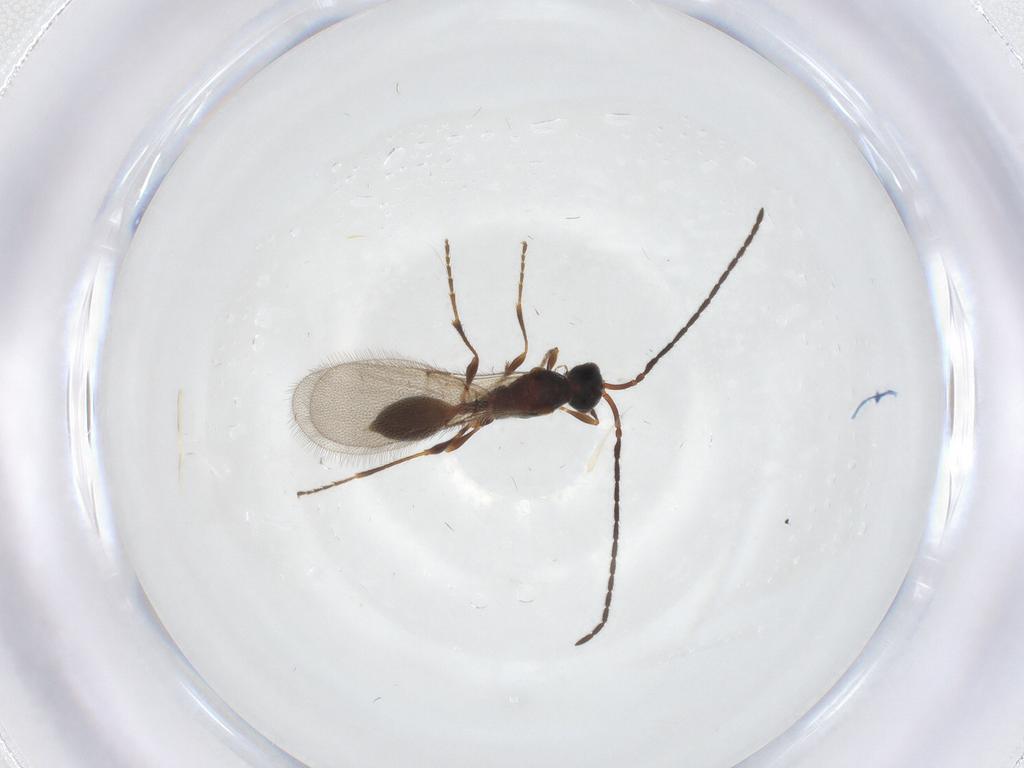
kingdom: Animalia
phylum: Arthropoda
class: Insecta
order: Hymenoptera
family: Diapriidae
